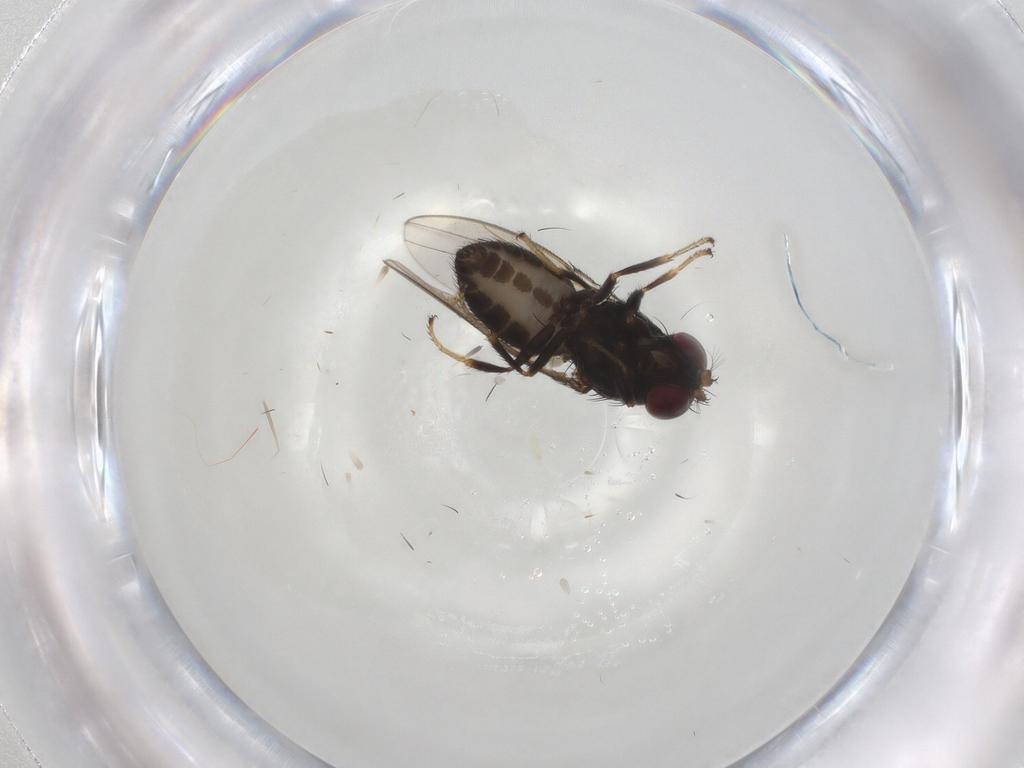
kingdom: Animalia
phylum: Arthropoda
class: Insecta
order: Diptera
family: Ephydridae
